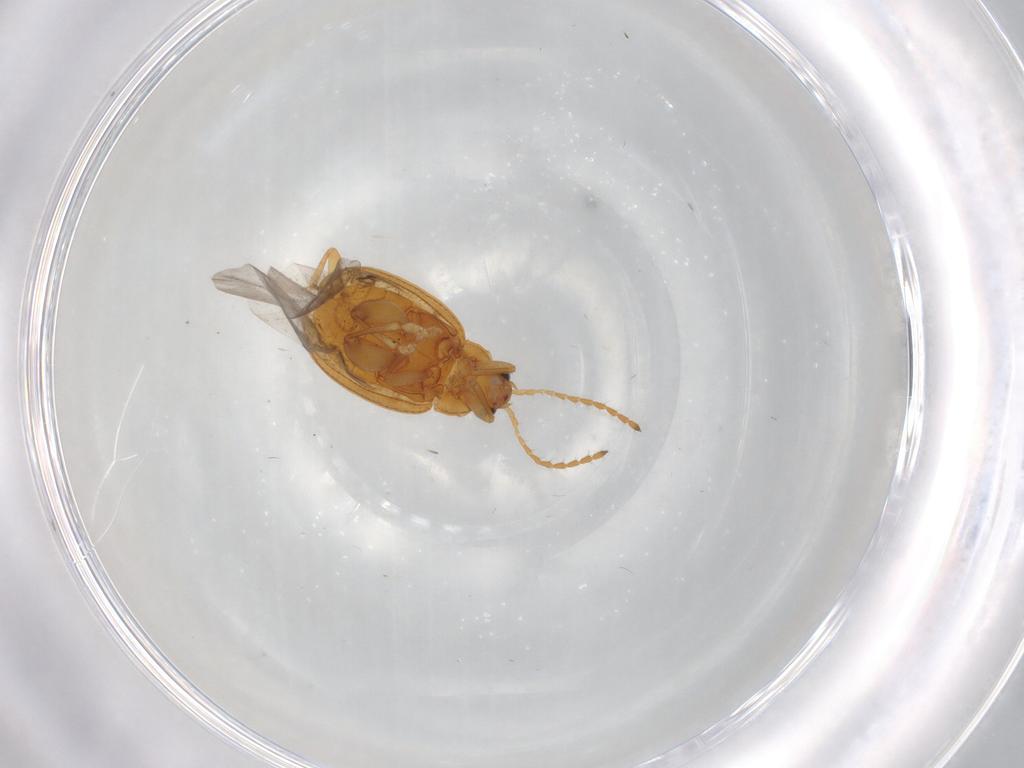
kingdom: Animalia
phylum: Arthropoda
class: Insecta
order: Coleoptera
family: Chrysomelidae
